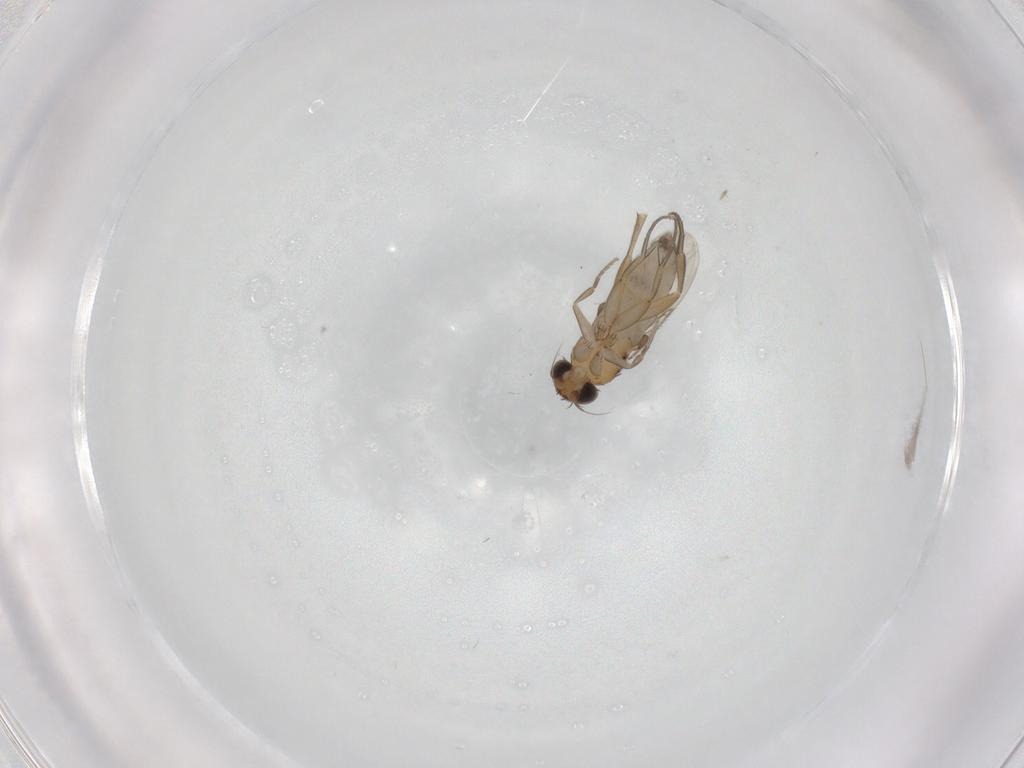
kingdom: Animalia
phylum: Arthropoda
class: Insecta
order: Diptera
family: Phoridae
